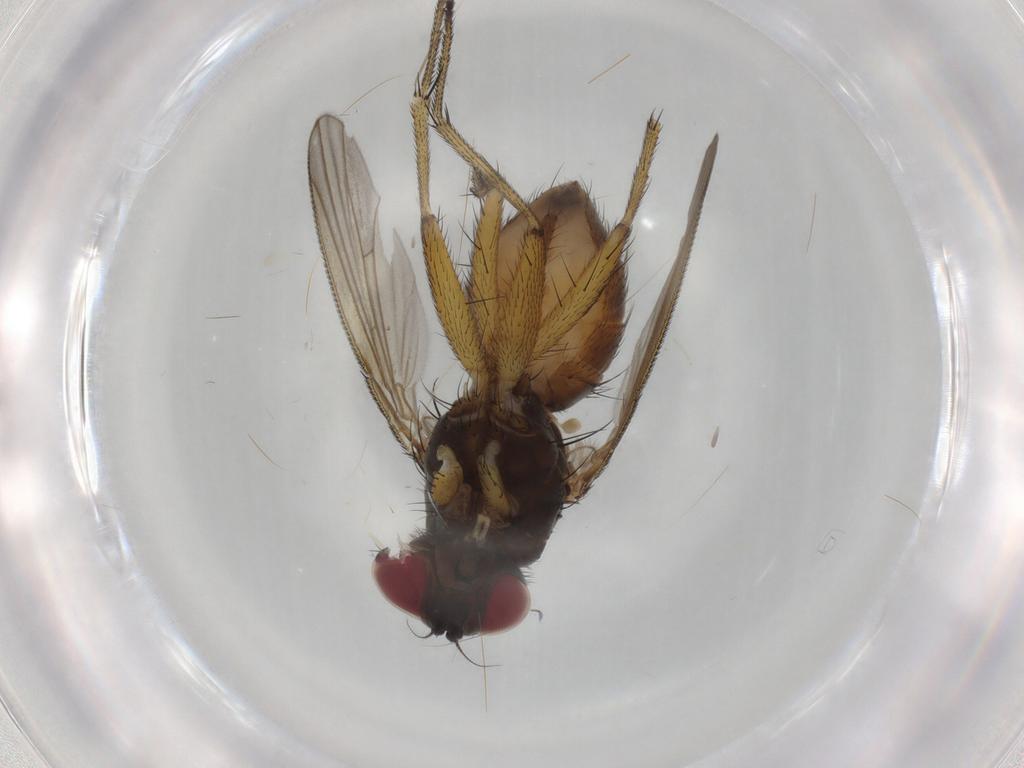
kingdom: Animalia
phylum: Arthropoda
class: Insecta
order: Diptera
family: Muscidae
